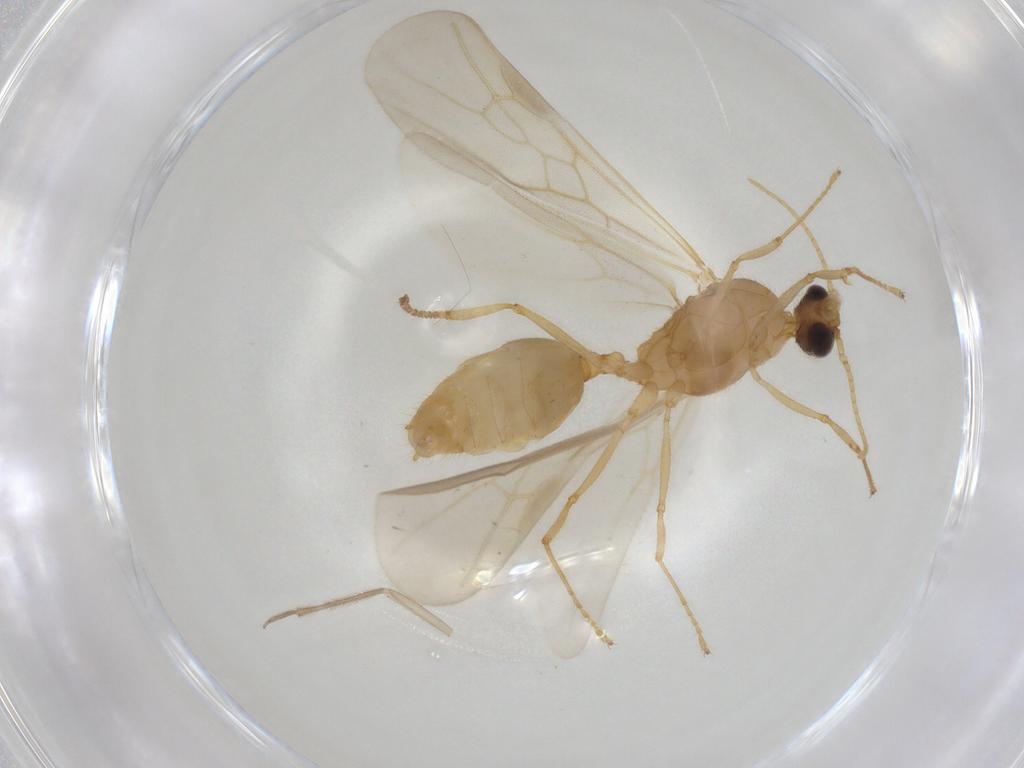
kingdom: Animalia
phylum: Arthropoda
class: Insecta
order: Hymenoptera
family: Formicidae
